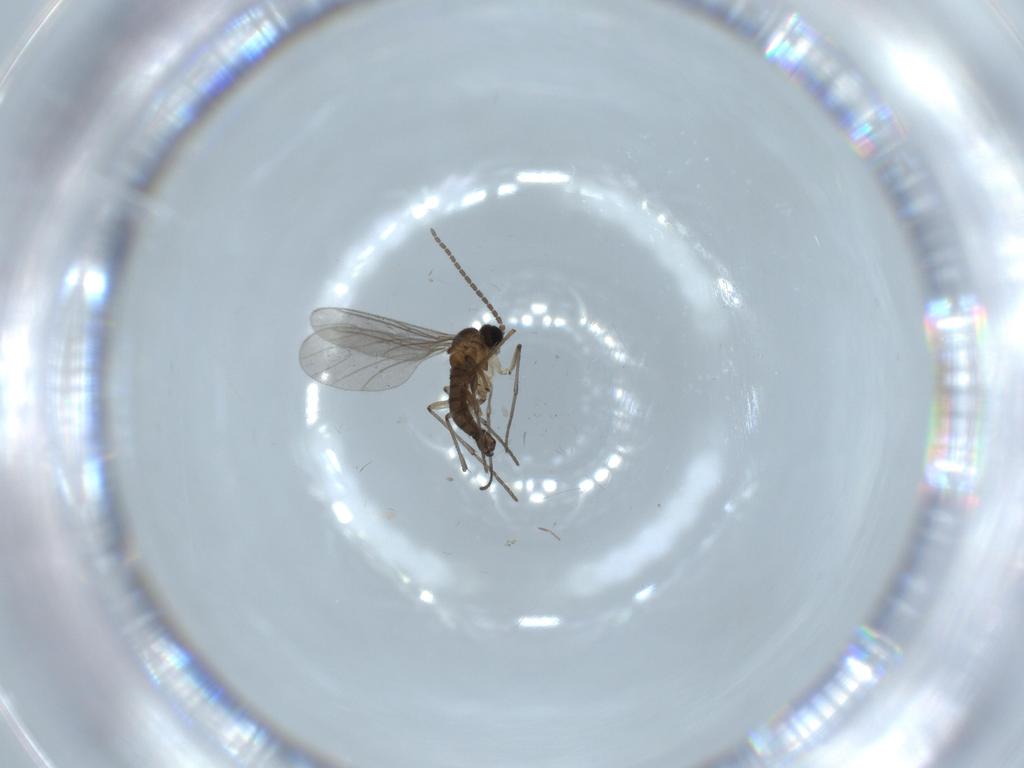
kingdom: Animalia
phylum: Arthropoda
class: Insecta
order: Diptera
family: Sciaridae
